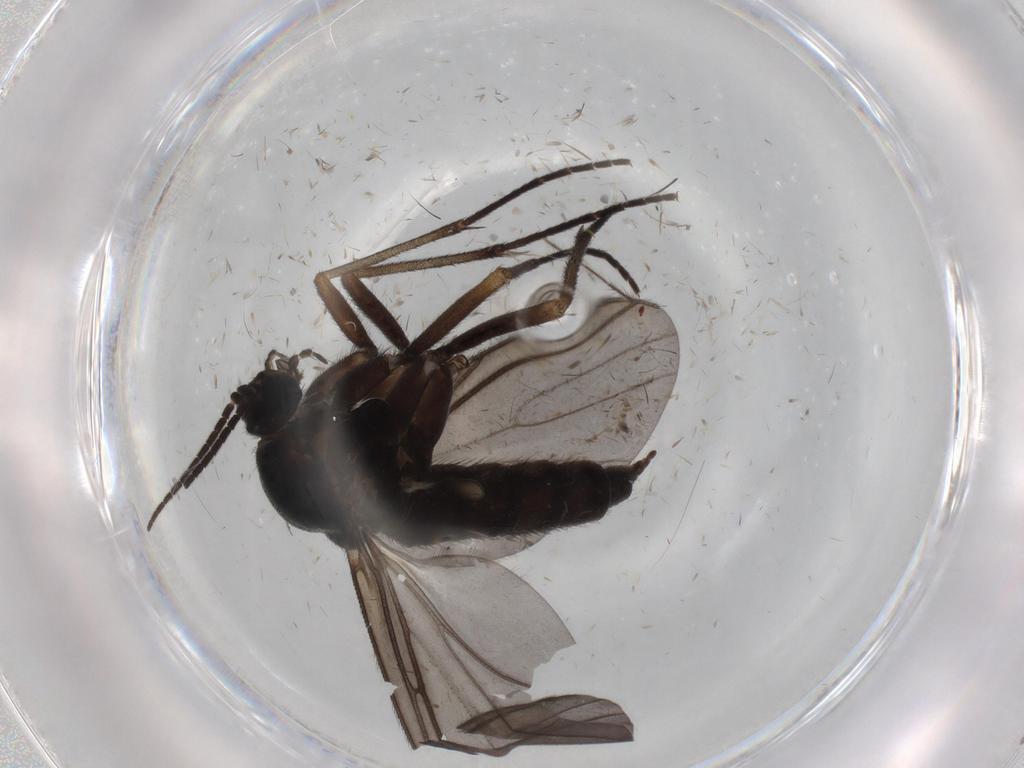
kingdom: Animalia
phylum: Arthropoda
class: Insecta
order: Diptera
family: Sciaridae
